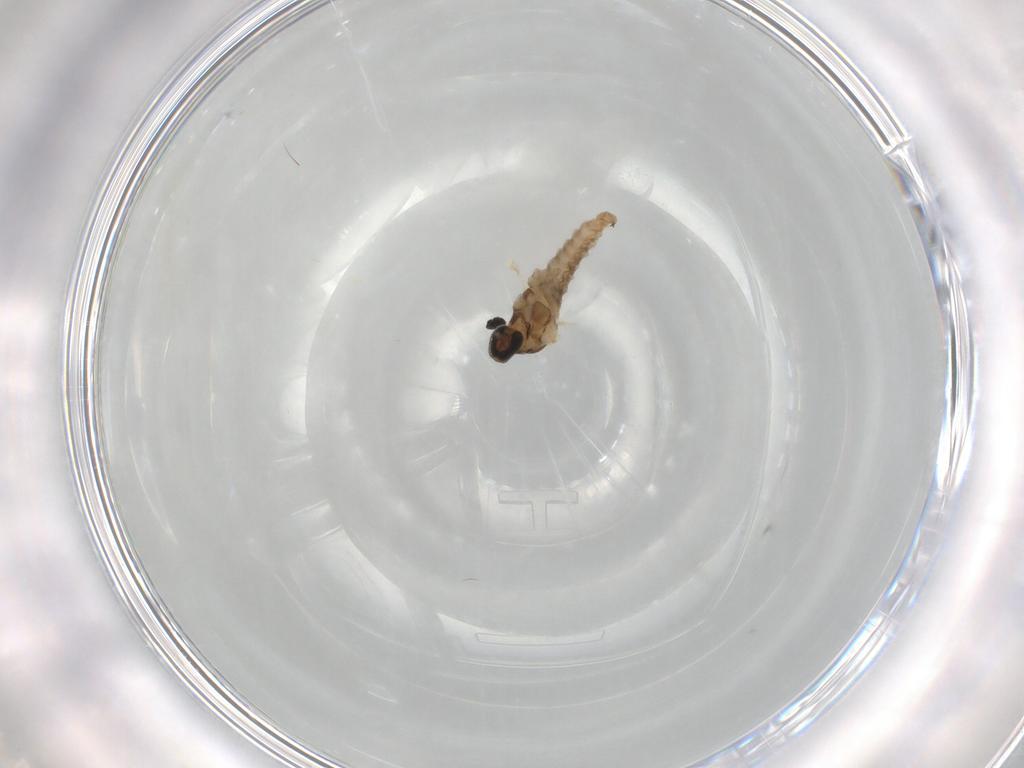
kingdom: Animalia
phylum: Arthropoda
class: Insecta
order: Diptera
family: Cecidomyiidae
